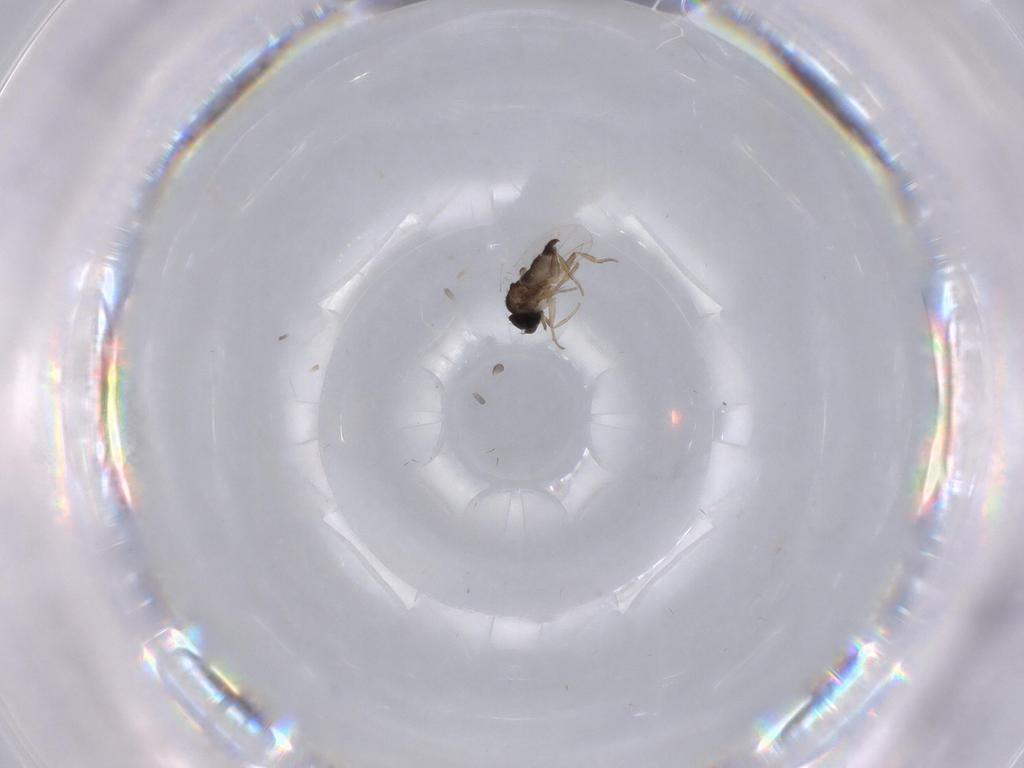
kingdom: Animalia
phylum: Arthropoda
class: Insecta
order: Diptera
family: Phoridae
